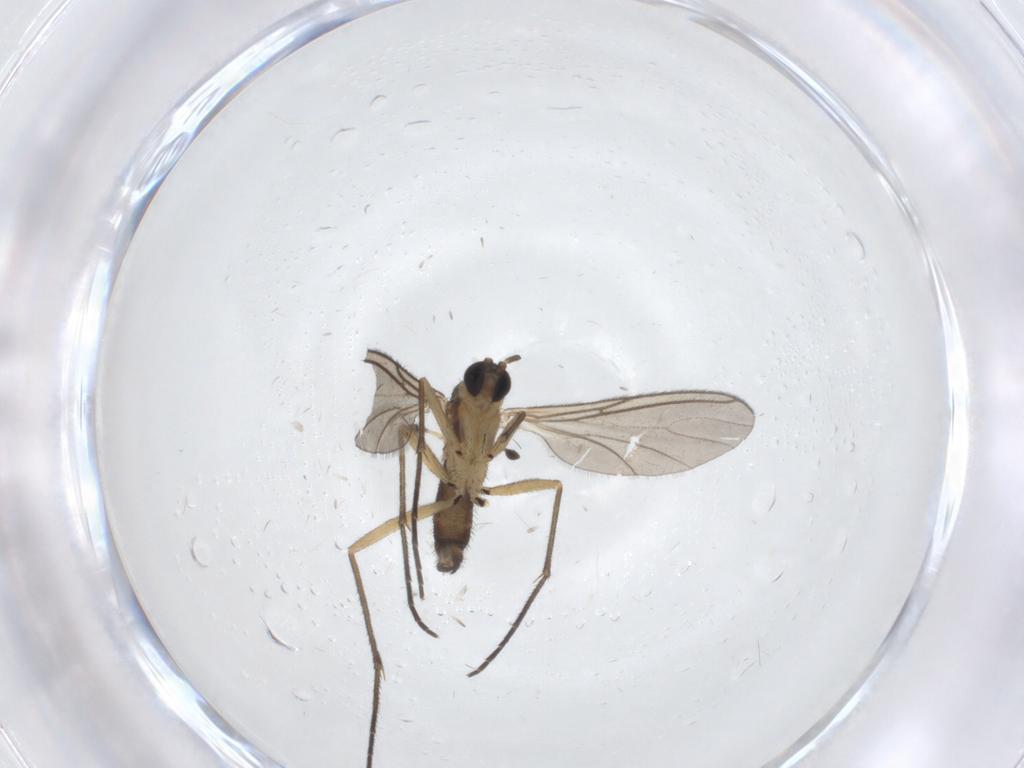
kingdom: Animalia
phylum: Arthropoda
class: Insecta
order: Diptera
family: Sciaridae
